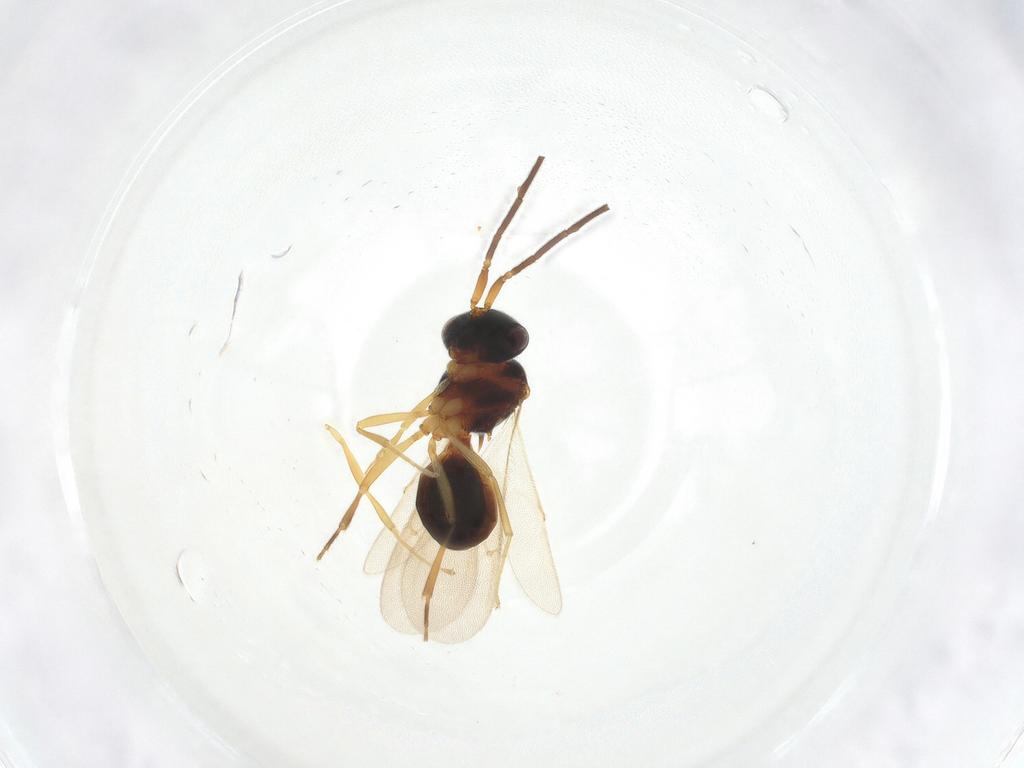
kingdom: Animalia
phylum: Arthropoda
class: Insecta
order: Hymenoptera
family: Scelionidae
